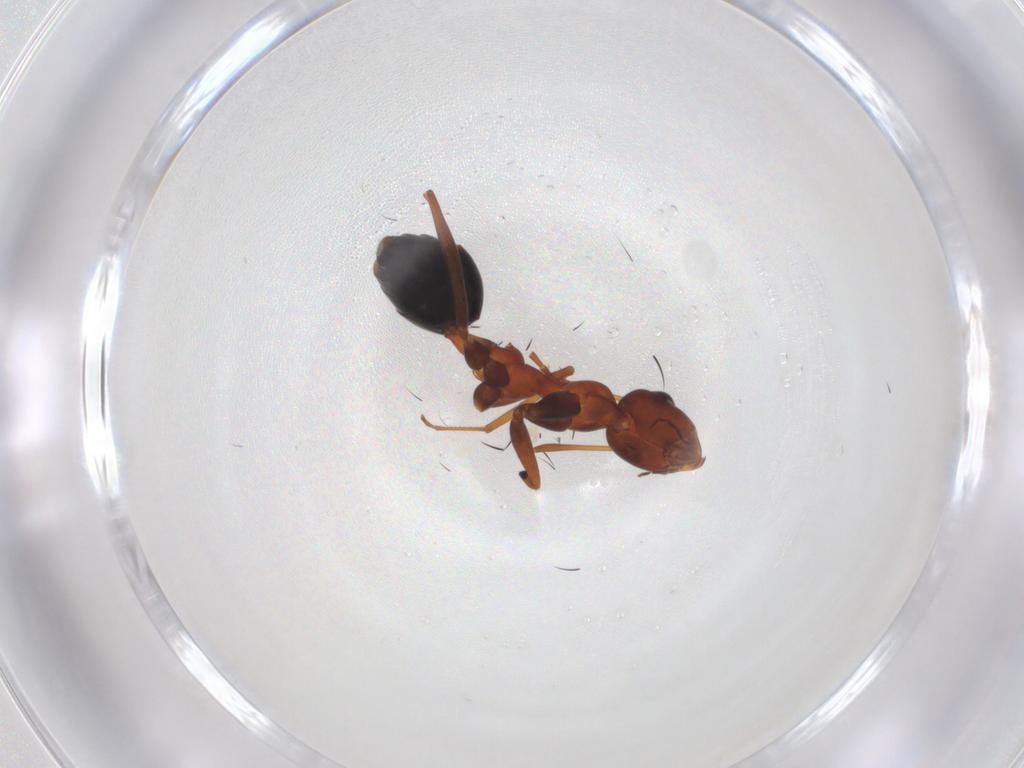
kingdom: Animalia
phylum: Arthropoda
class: Insecta
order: Hymenoptera
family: Formicidae
